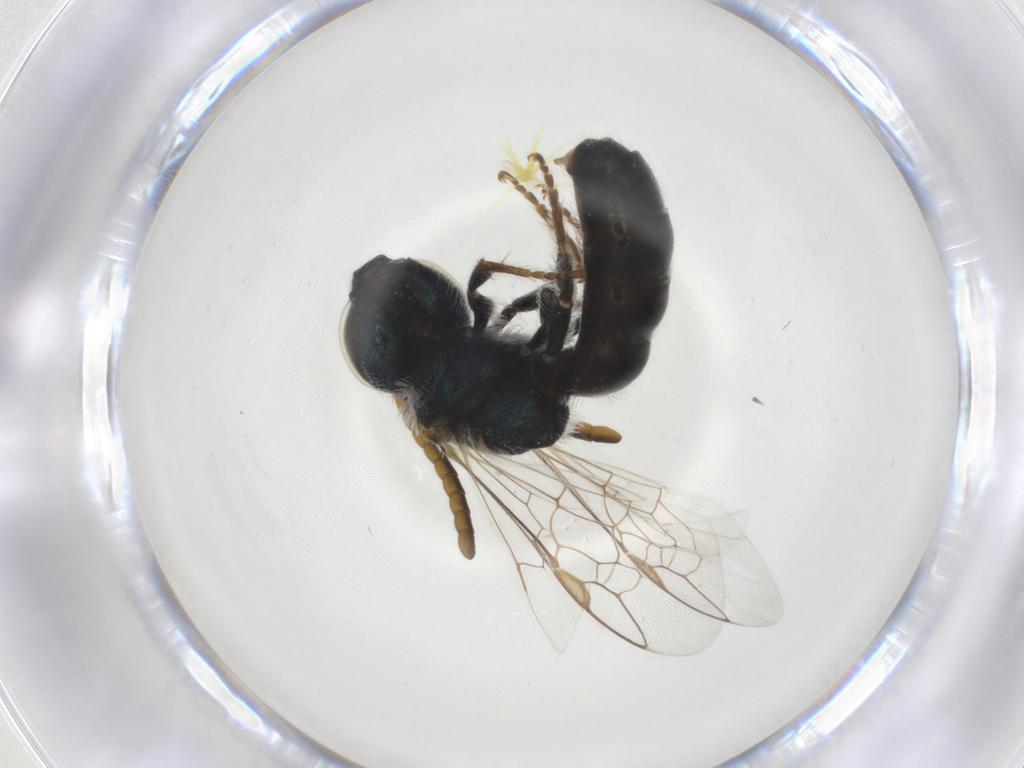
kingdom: Animalia
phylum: Arthropoda
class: Insecta
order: Hymenoptera
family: Halictidae
